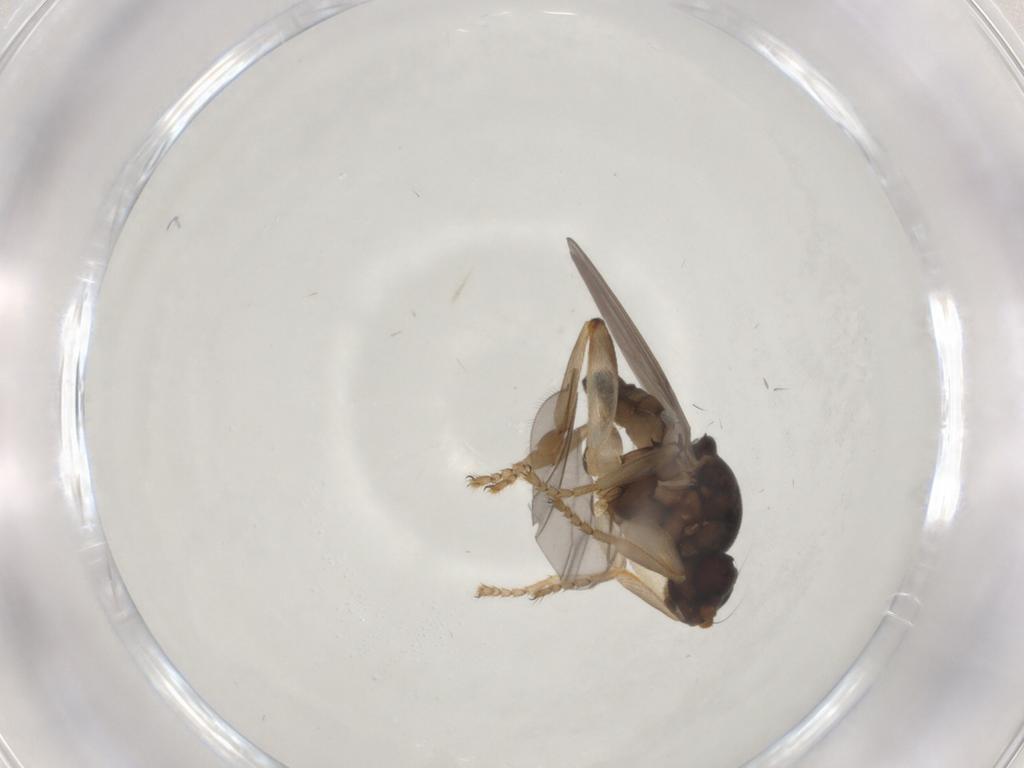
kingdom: Animalia
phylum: Arthropoda
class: Insecta
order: Diptera
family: Sphaeroceridae
